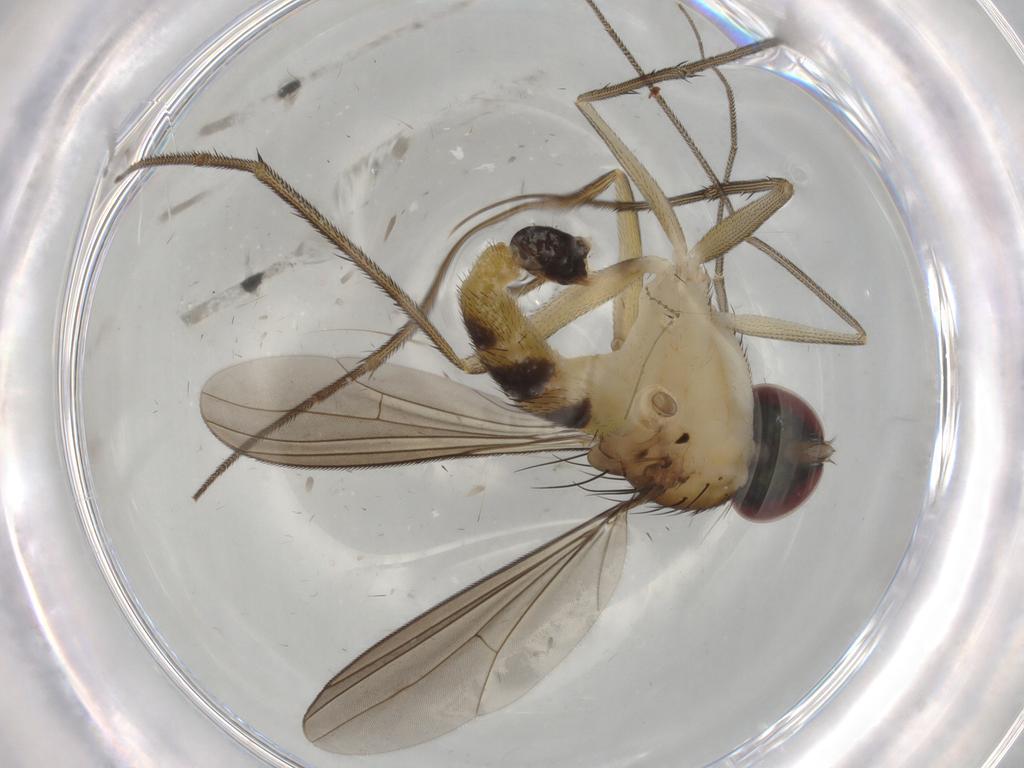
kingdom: Animalia
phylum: Arthropoda
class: Insecta
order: Diptera
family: Dolichopodidae
